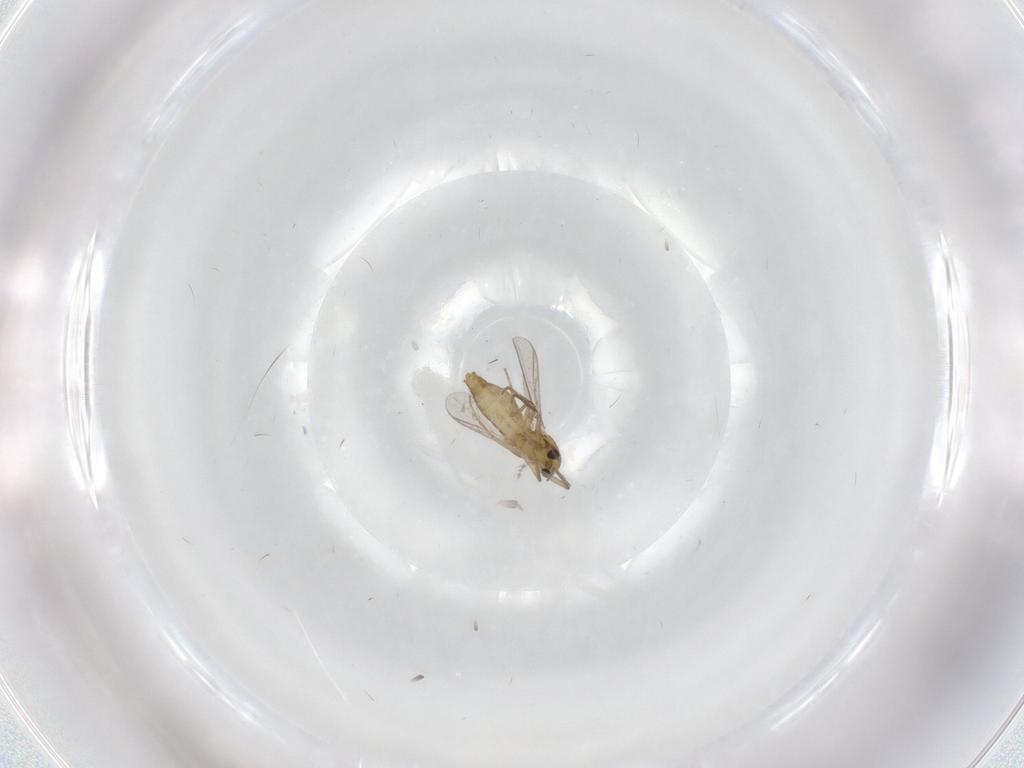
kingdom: Animalia
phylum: Arthropoda
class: Insecta
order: Diptera
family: Chironomidae
